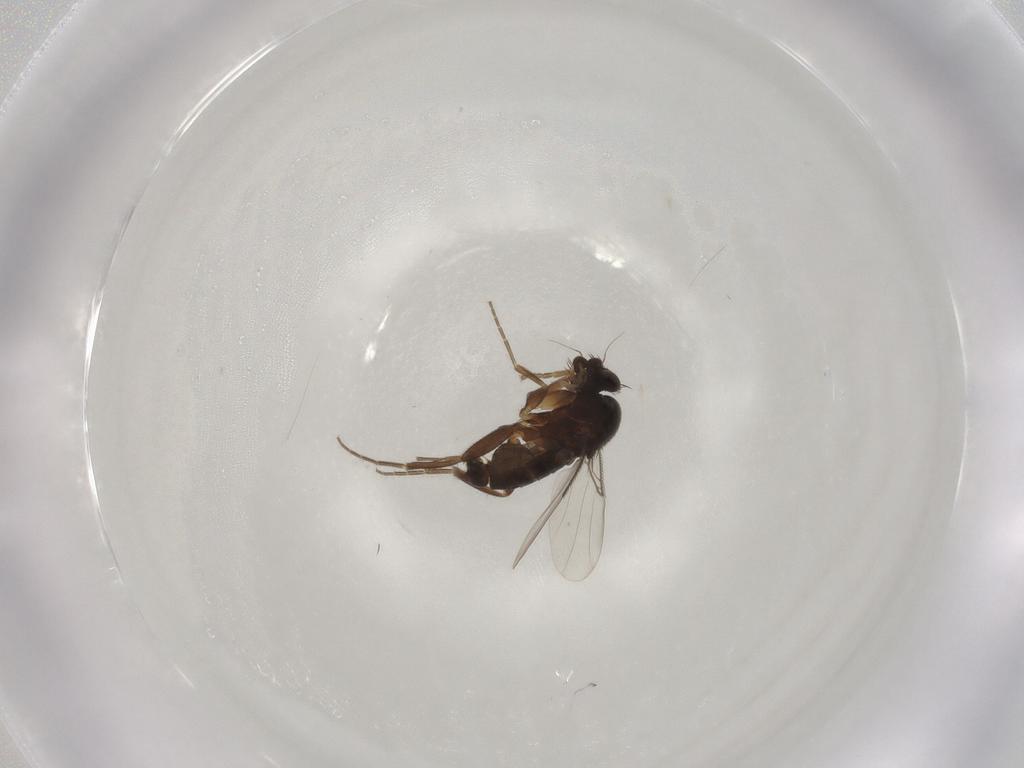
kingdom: Animalia
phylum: Arthropoda
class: Insecta
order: Diptera
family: Phoridae
